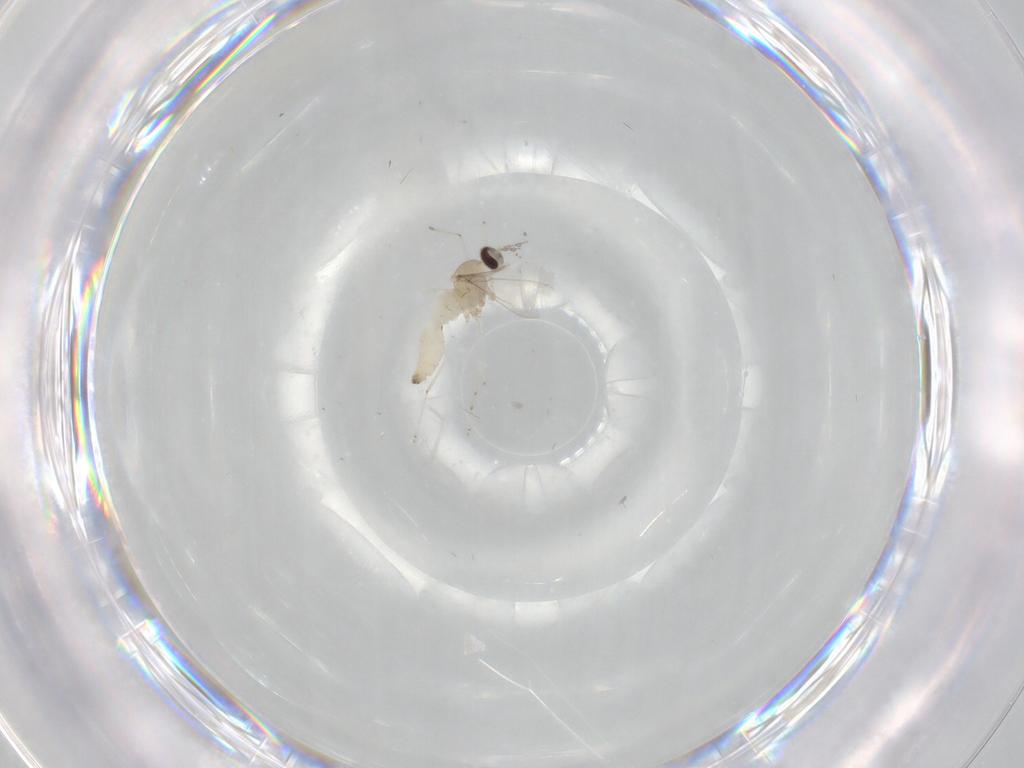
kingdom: Animalia
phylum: Arthropoda
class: Insecta
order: Diptera
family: Cecidomyiidae
